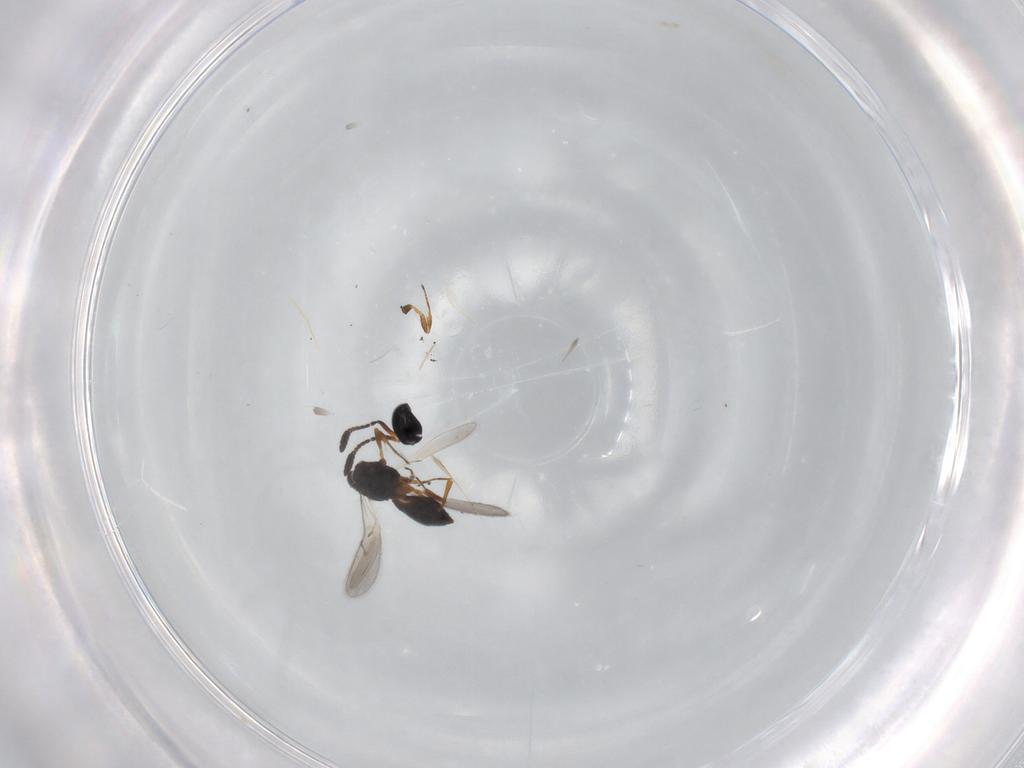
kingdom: Animalia
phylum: Arthropoda
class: Insecta
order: Hymenoptera
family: Scelionidae
